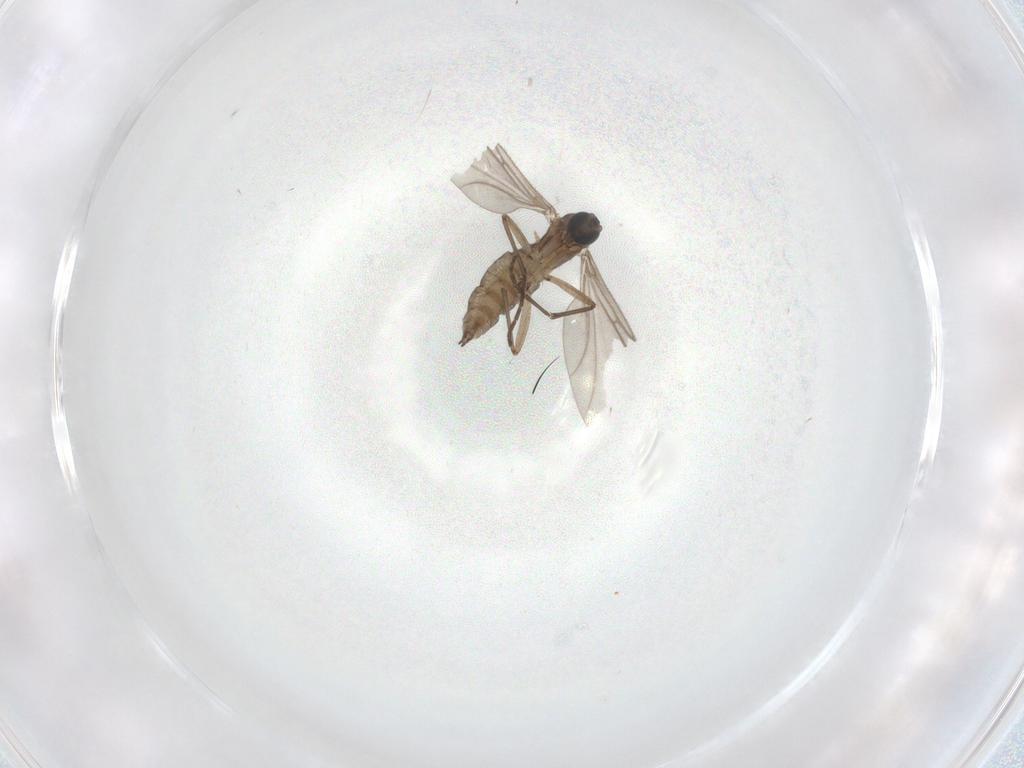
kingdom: Animalia
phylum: Arthropoda
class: Insecta
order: Diptera
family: Sciaridae
